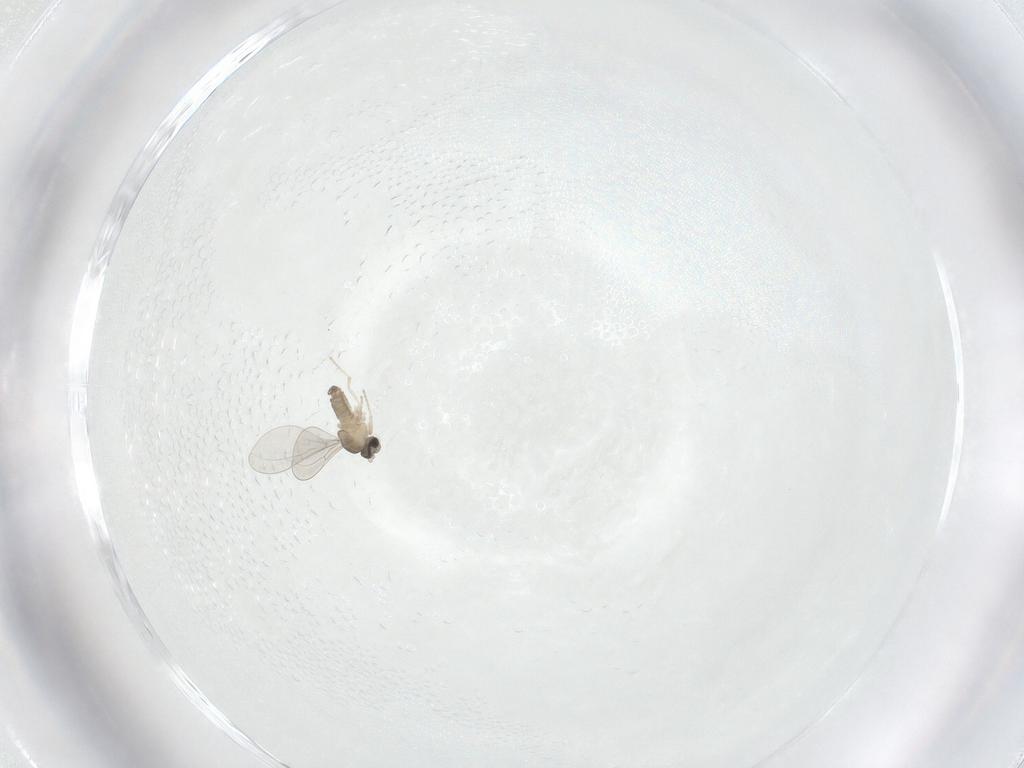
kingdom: Animalia
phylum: Arthropoda
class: Insecta
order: Diptera
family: Cecidomyiidae
